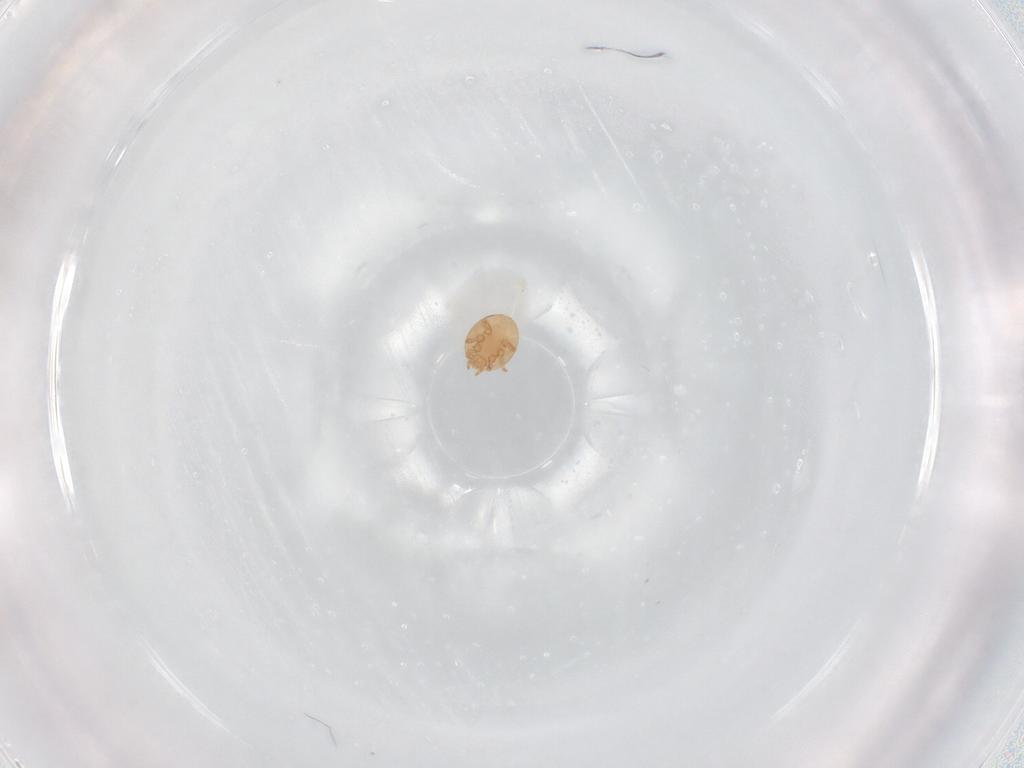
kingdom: Animalia
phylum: Arthropoda
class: Arachnida
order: Mesostigmata
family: Trematuridae
